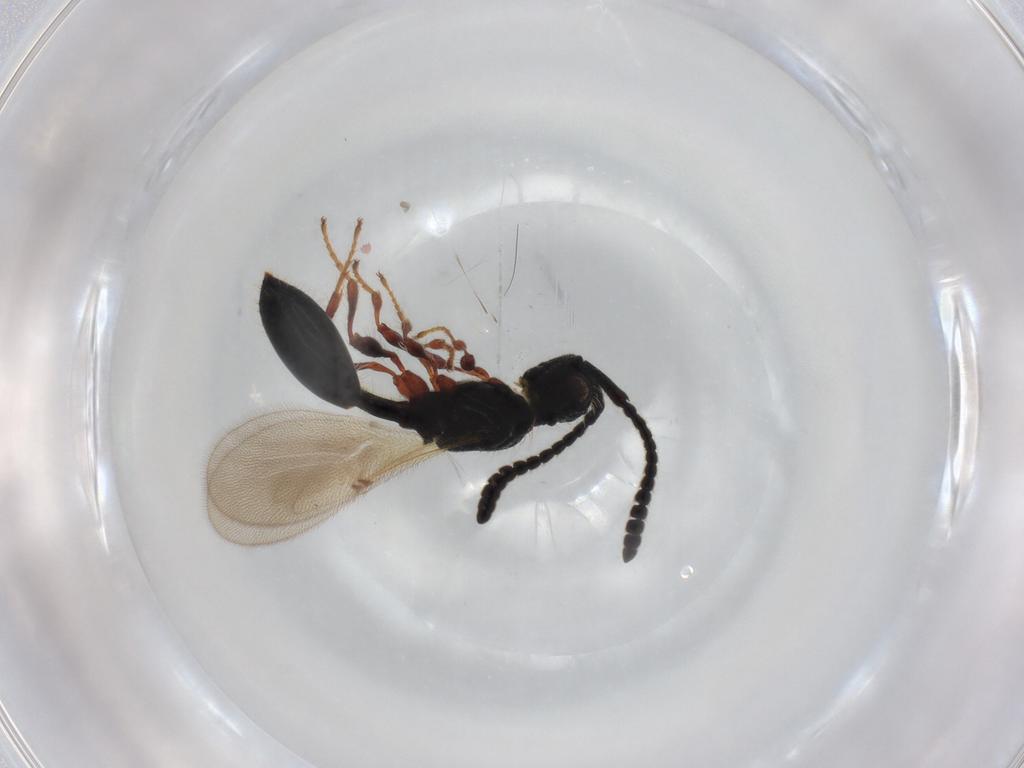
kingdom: Animalia
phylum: Arthropoda
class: Insecta
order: Hymenoptera
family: Diapriidae
